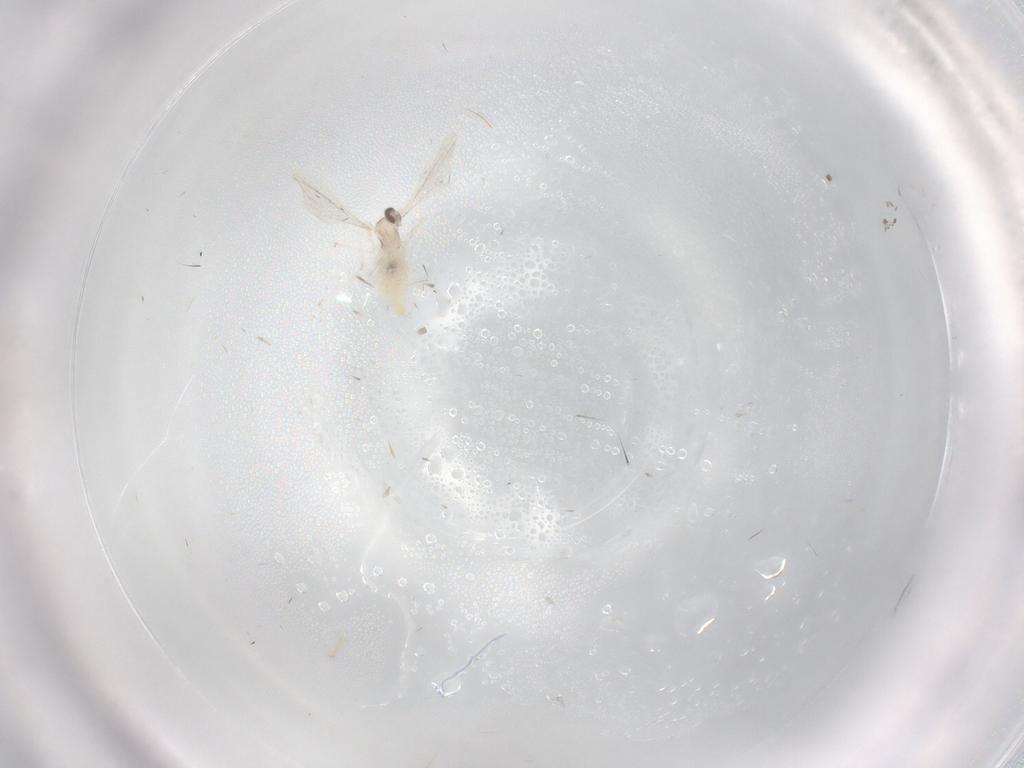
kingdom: Animalia
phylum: Arthropoda
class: Insecta
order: Diptera
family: Cecidomyiidae
